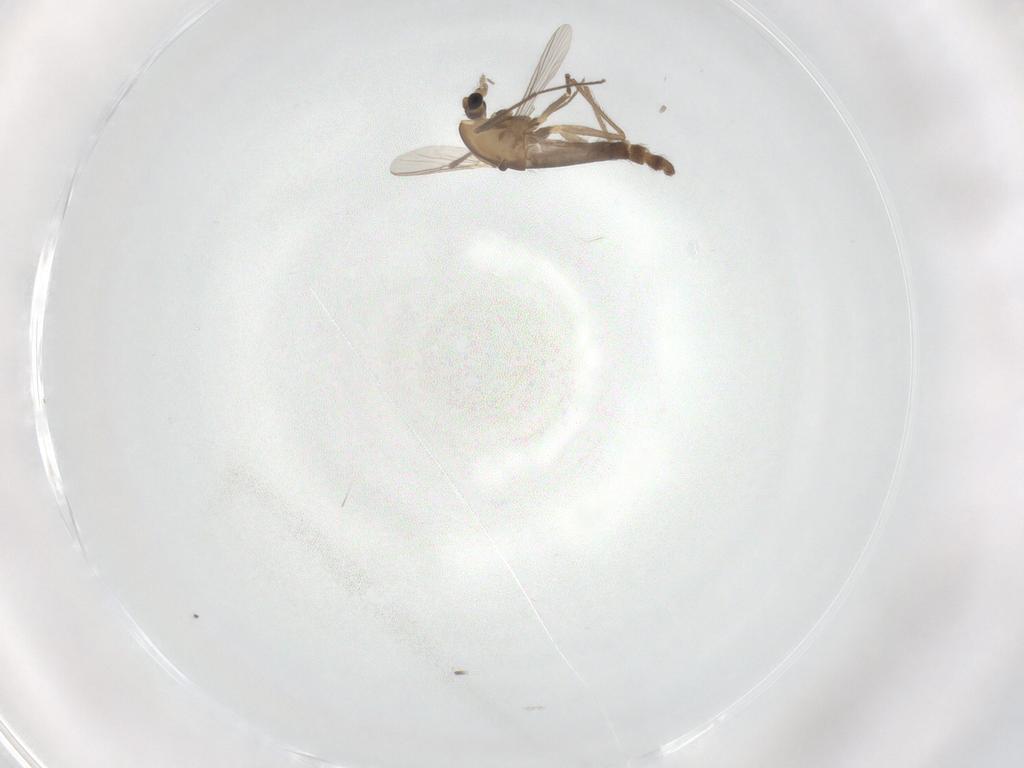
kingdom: Animalia
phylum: Arthropoda
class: Insecta
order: Diptera
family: Chironomidae
